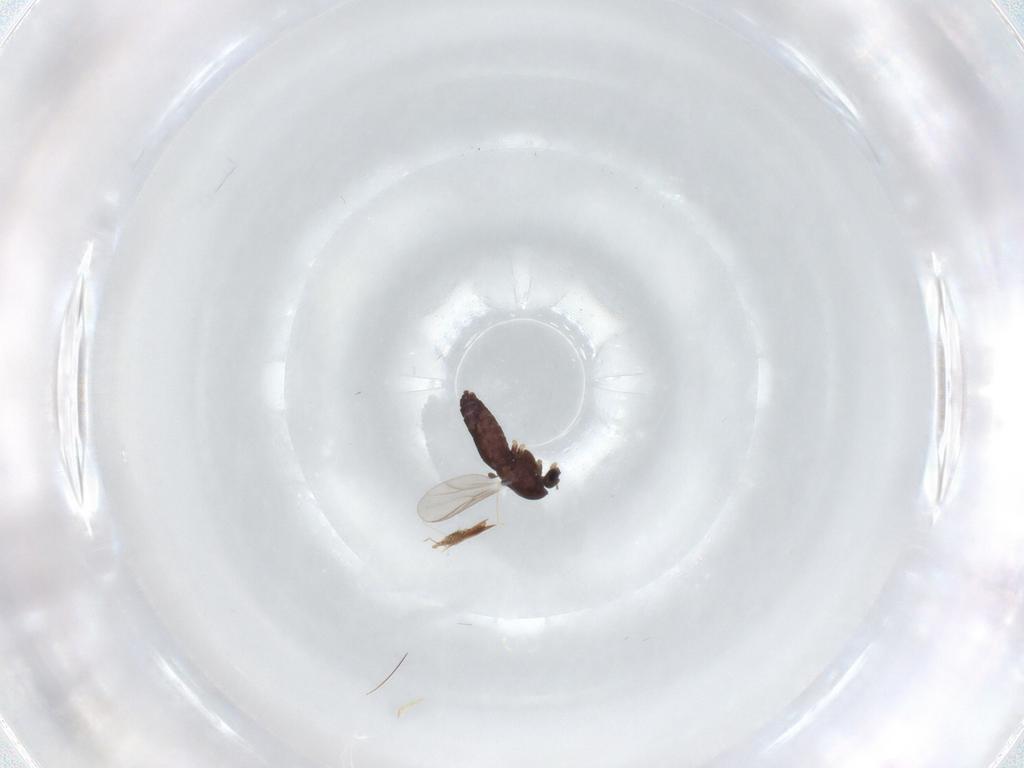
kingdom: Animalia
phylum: Arthropoda
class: Insecta
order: Diptera
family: Chironomidae
